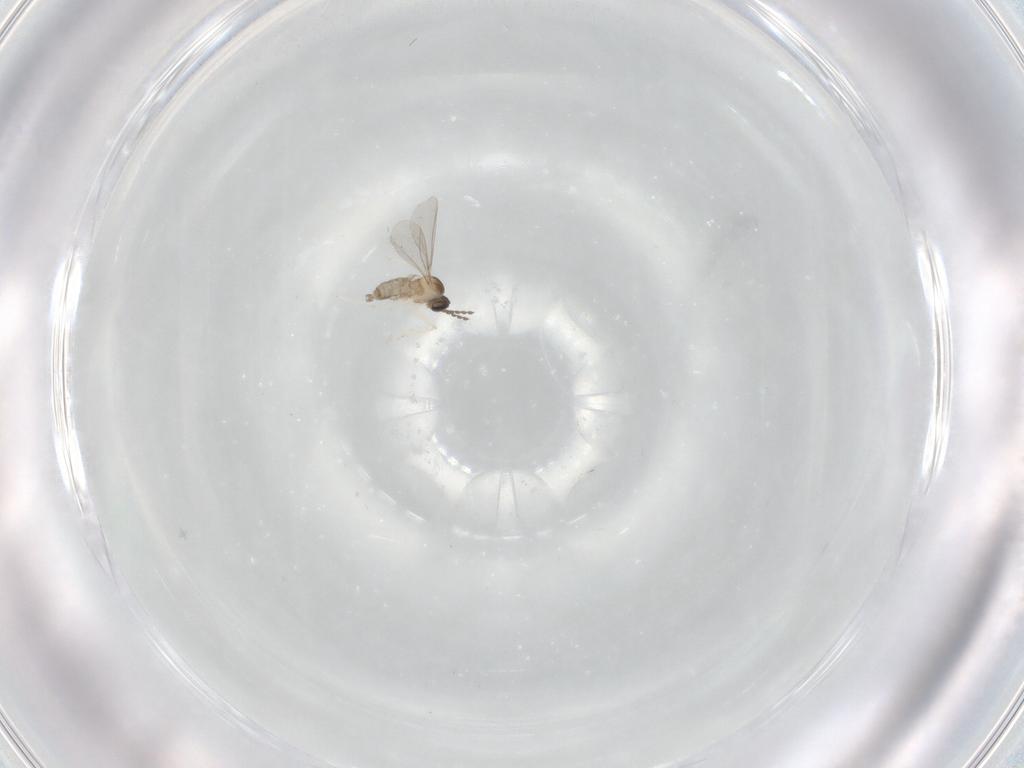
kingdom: Animalia
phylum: Arthropoda
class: Insecta
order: Diptera
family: Cecidomyiidae
